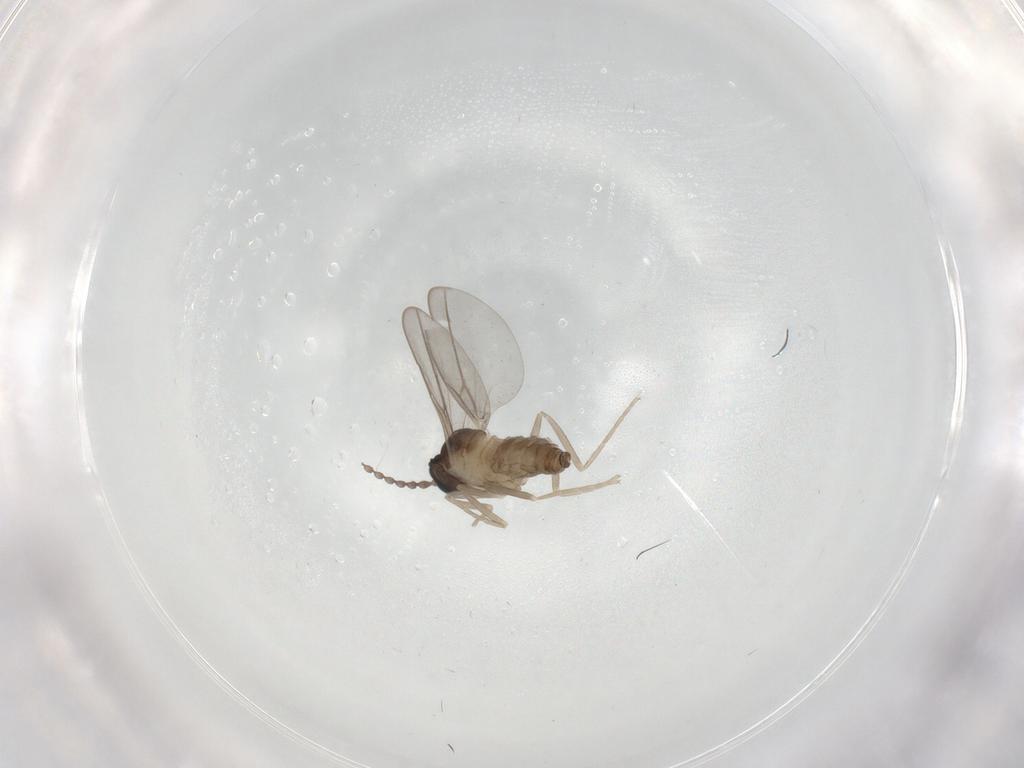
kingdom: Animalia
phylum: Arthropoda
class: Insecta
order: Diptera
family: Cecidomyiidae
